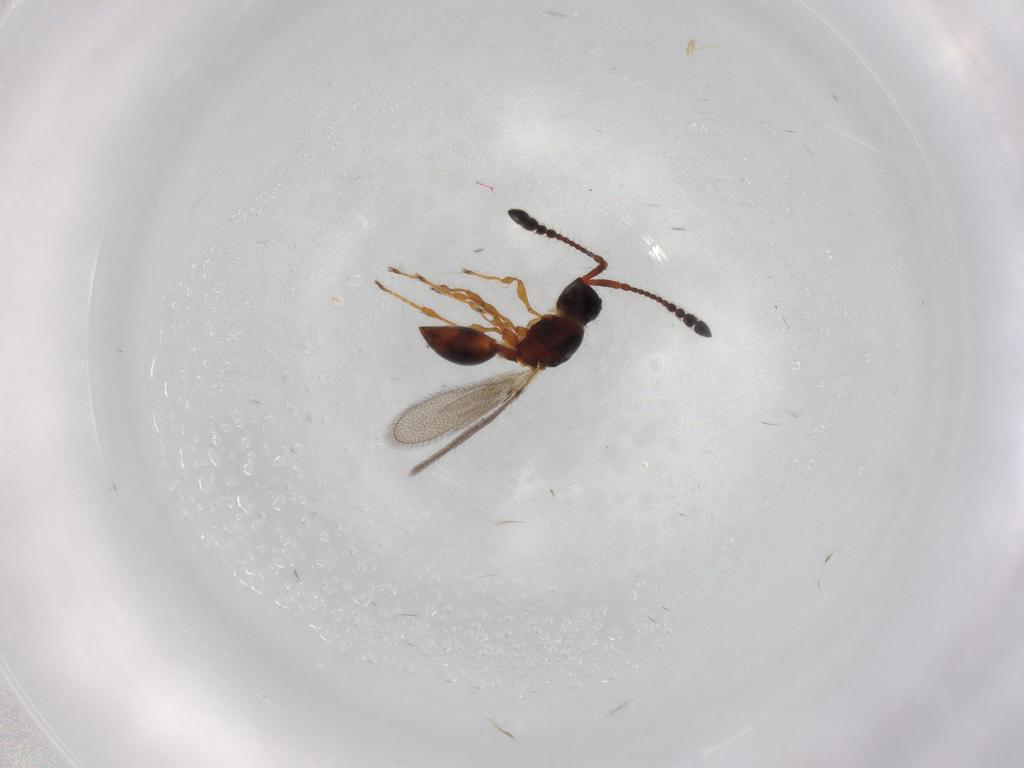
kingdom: Animalia
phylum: Arthropoda
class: Insecta
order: Hymenoptera
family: Diapriidae
